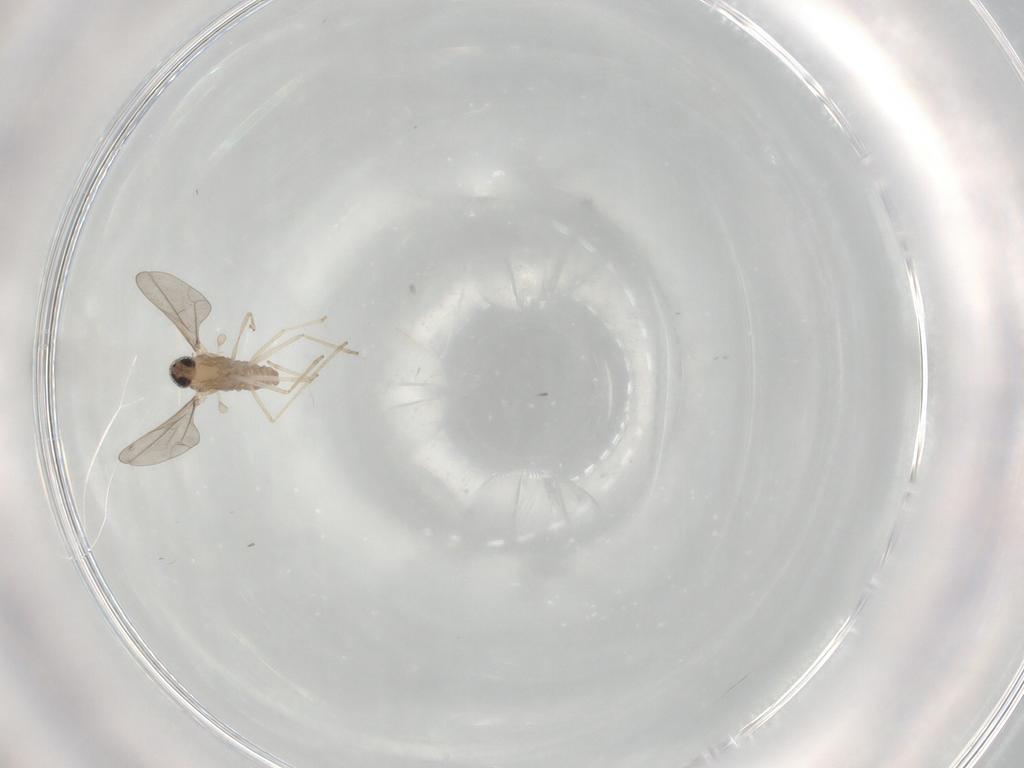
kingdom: Animalia
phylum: Arthropoda
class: Insecta
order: Diptera
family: Cecidomyiidae
